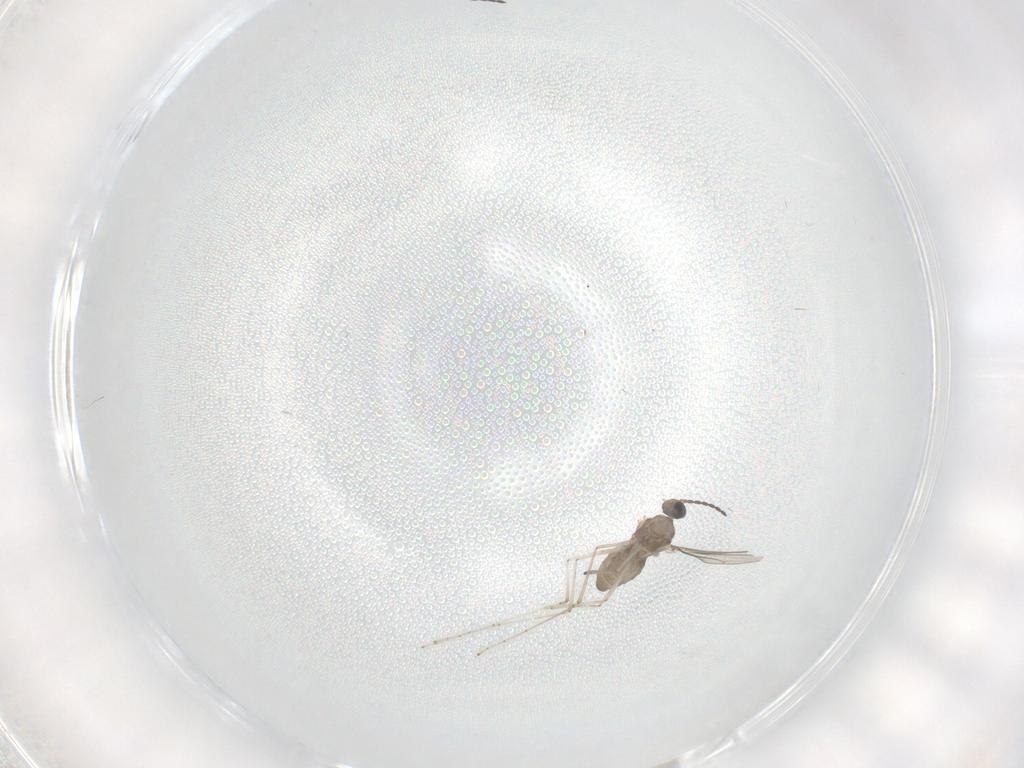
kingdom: Animalia
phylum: Arthropoda
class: Insecta
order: Diptera
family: Cecidomyiidae
